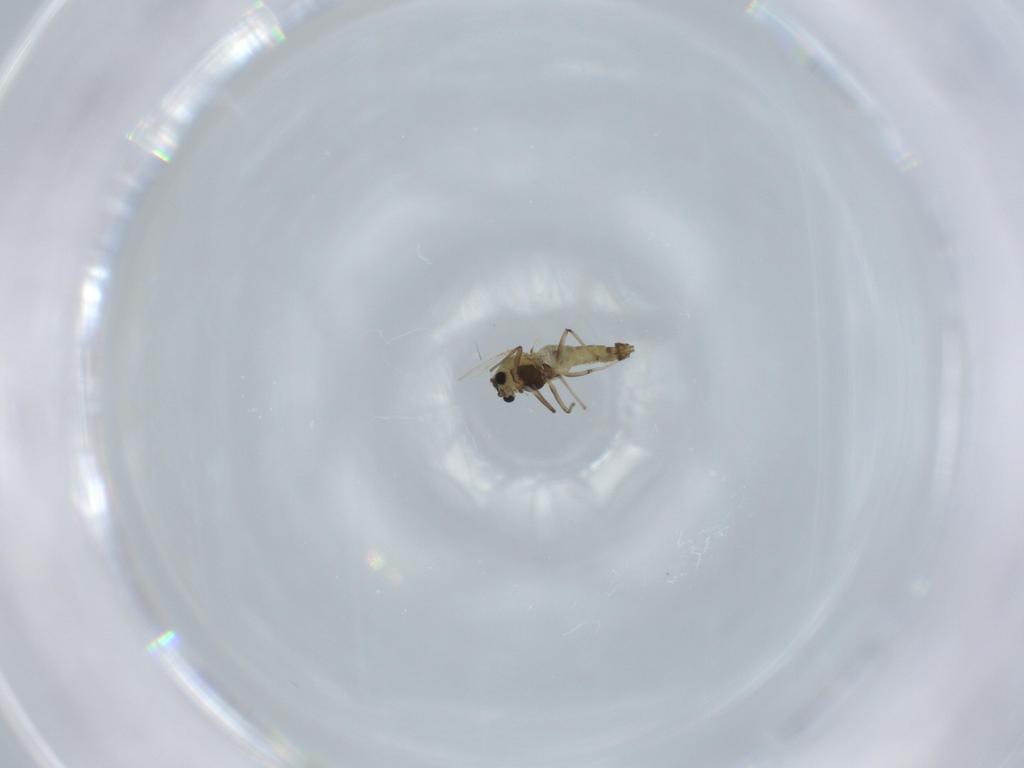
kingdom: Animalia
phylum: Arthropoda
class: Insecta
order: Diptera
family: Chironomidae
